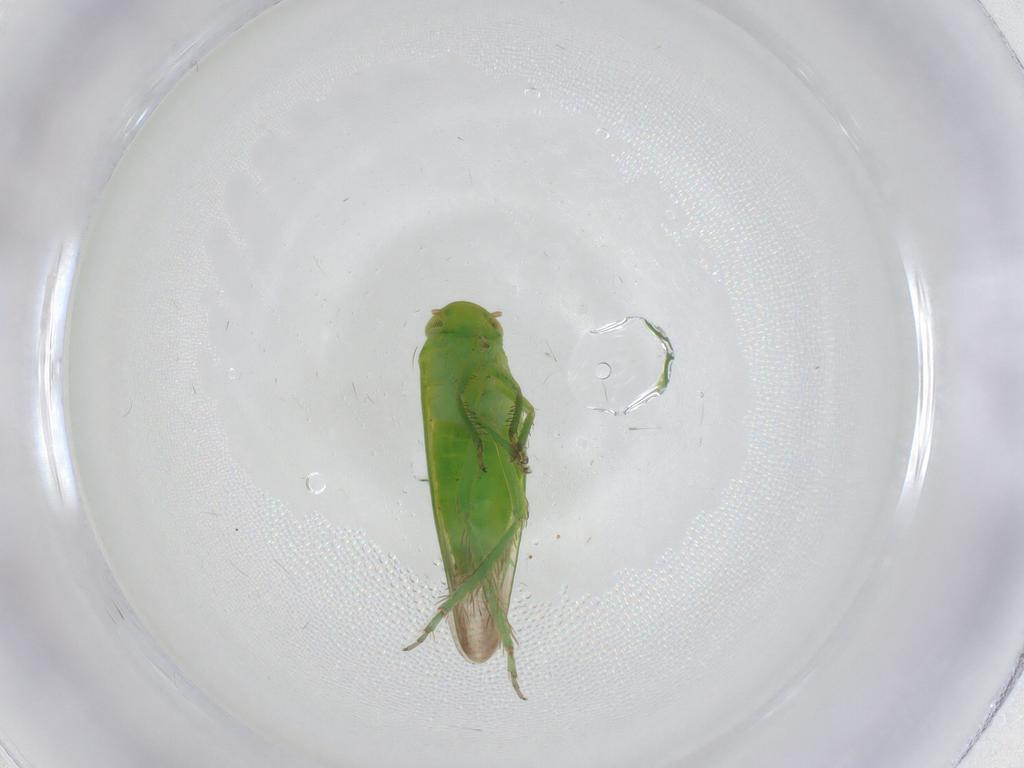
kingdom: Animalia
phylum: Arthropoda
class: Insecta
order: Hemiptera
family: Cicadellidae
